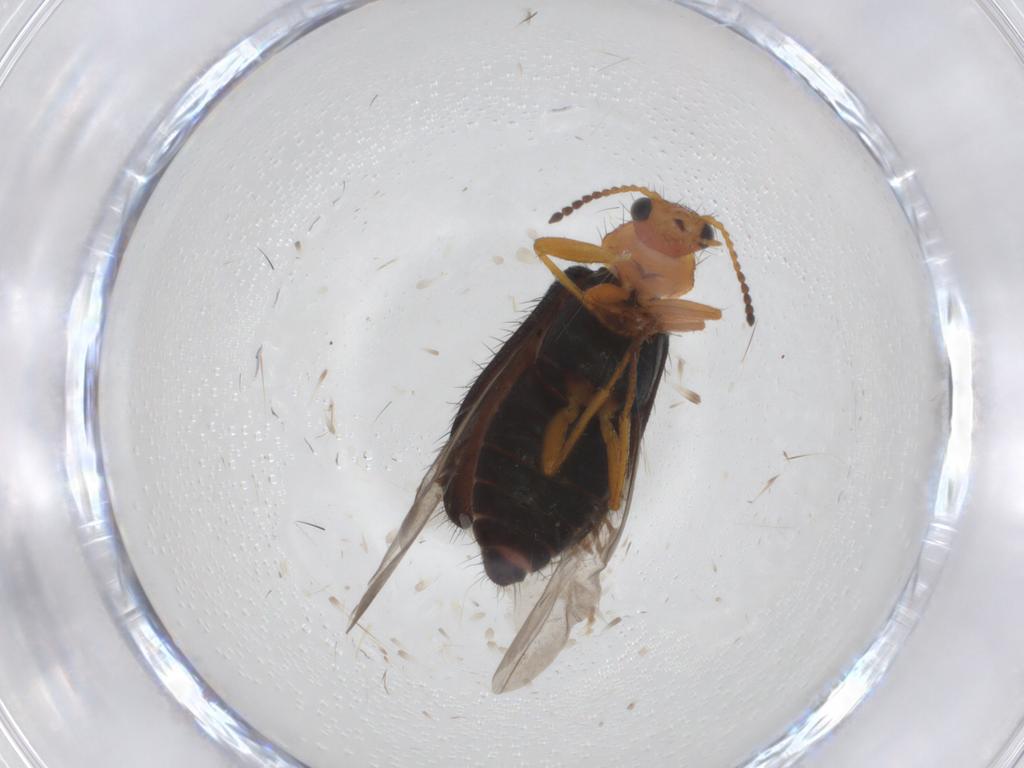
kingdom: Animalia
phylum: Arthropoda
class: Insecta
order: Coleoptera
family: Melyridae
